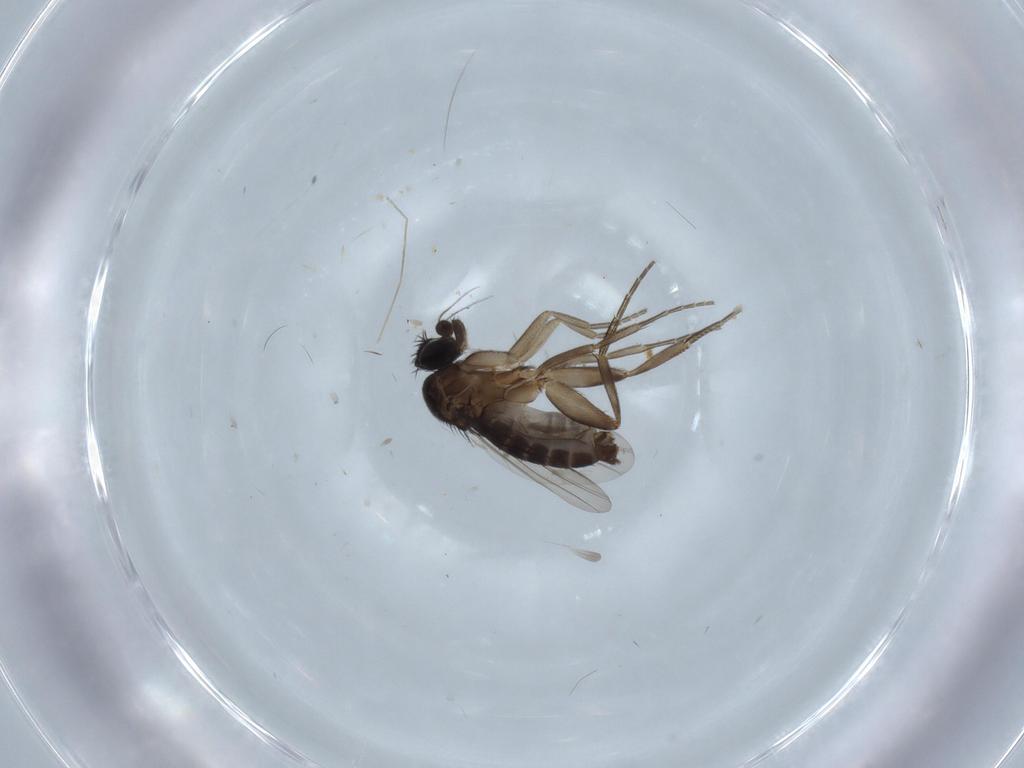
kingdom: Animalia
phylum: Arthropoda
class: Insecta
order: Diptera
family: Phoridae
